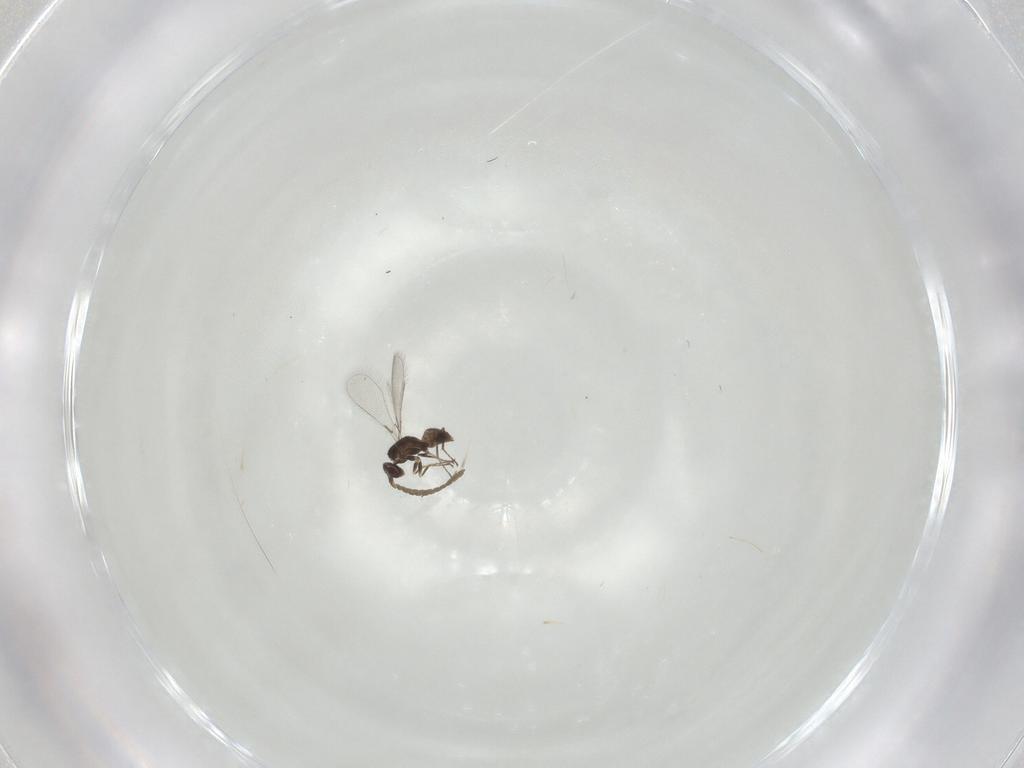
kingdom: Animalia
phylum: Arthropoda
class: Insecta
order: Hymenoptera
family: Mymaridae
